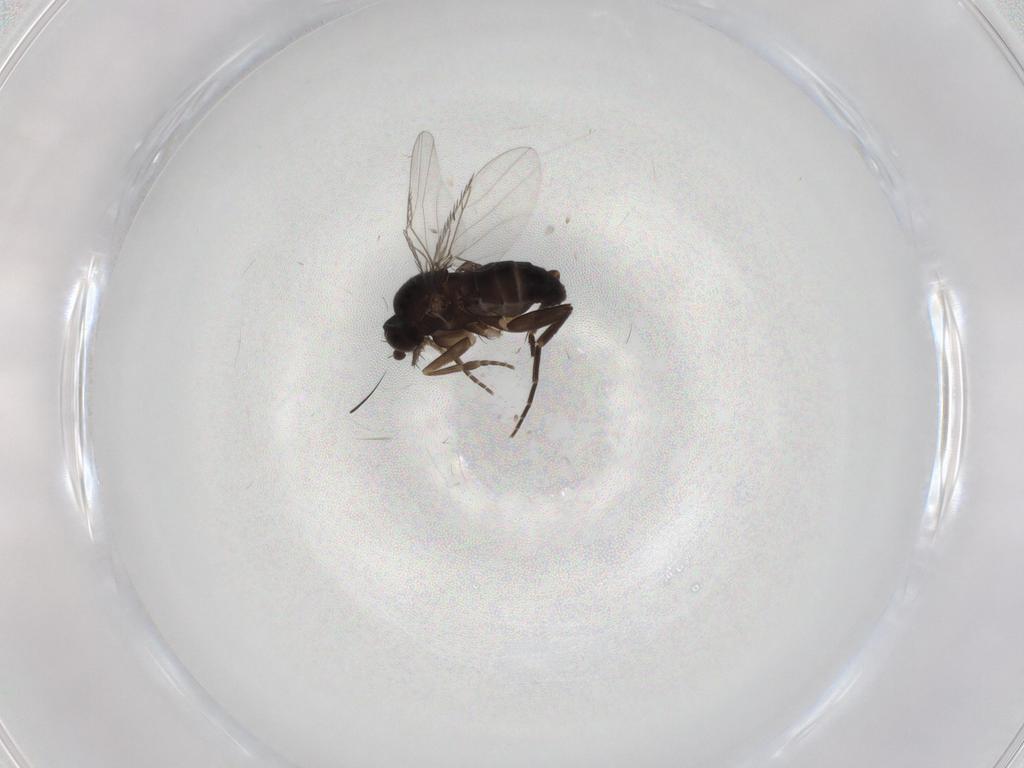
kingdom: Animalia
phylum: Arthropoda
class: Insecta
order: Diptera
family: Phoridae
